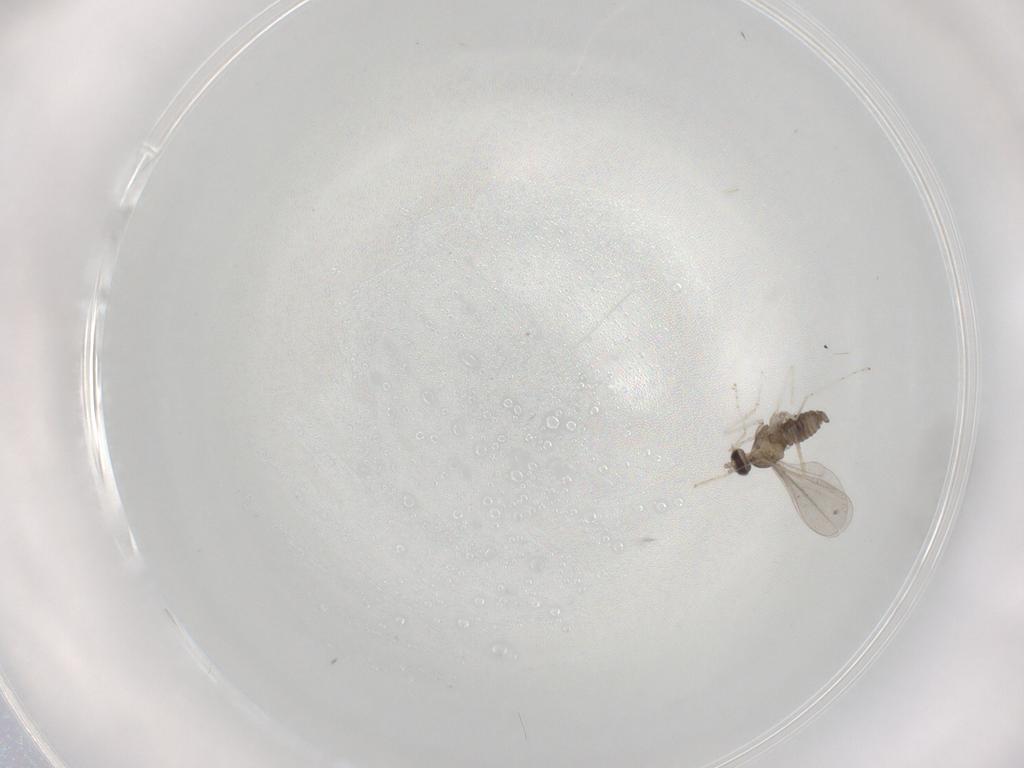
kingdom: Animalia
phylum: Arthropoda
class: Insecta
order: Diptera
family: Cecidomyiidae
